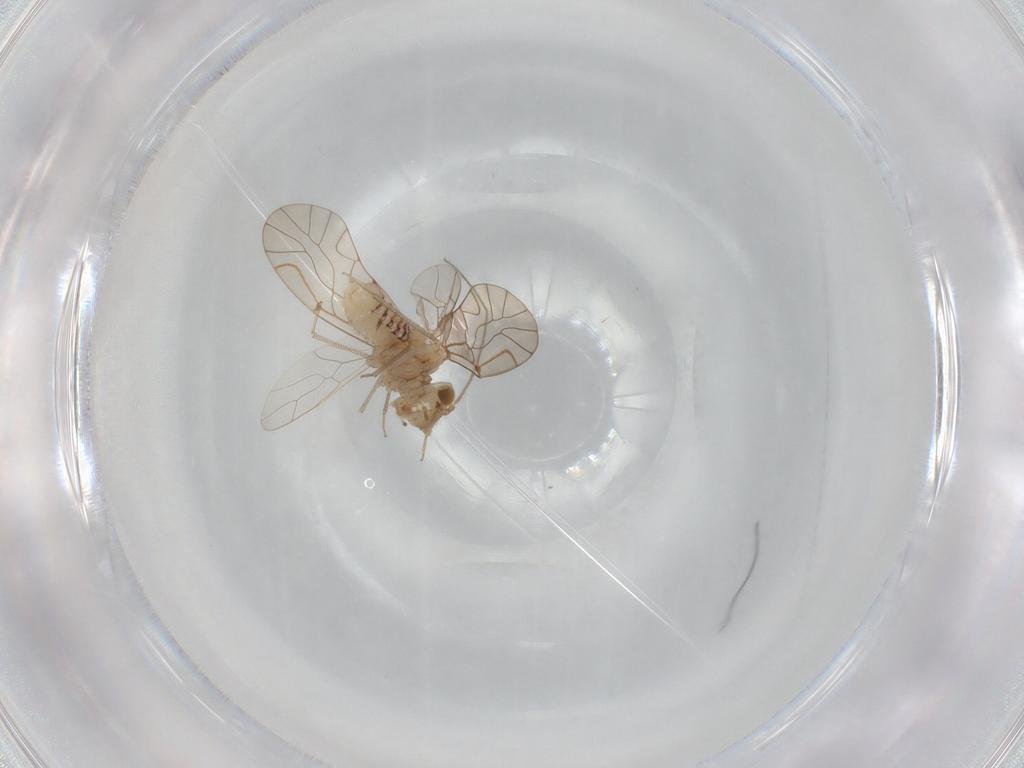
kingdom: Animalia
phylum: Arthropoda
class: Insecta
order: Psocodea
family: Lachesillidae
